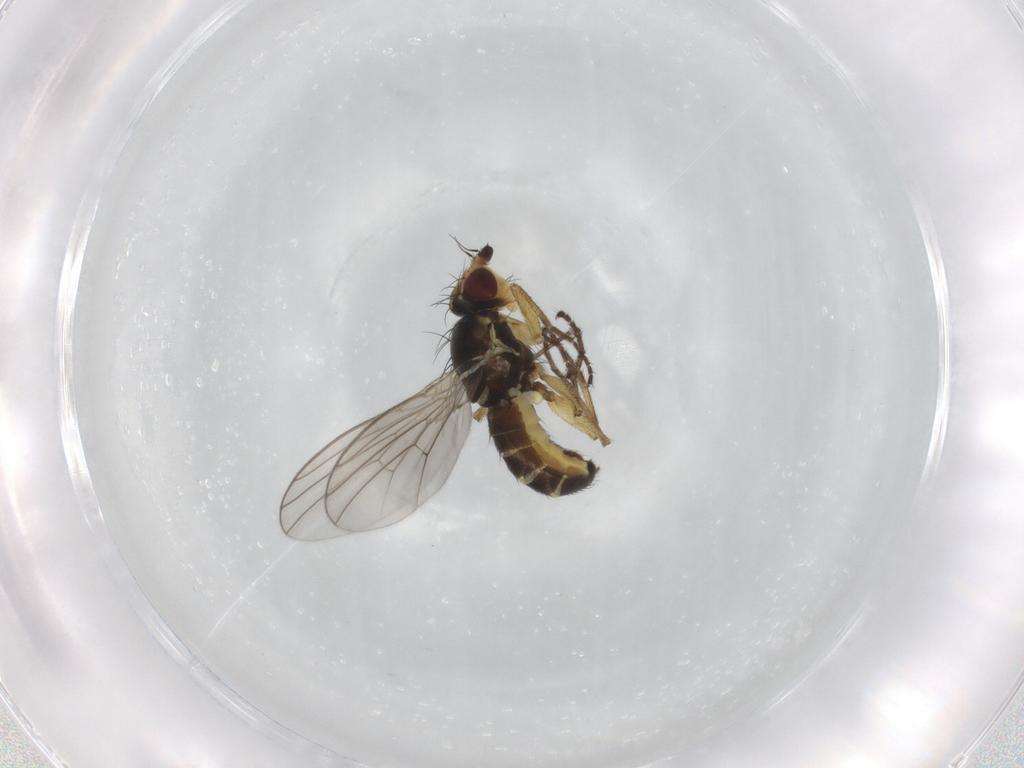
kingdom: Animalia
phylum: Arthropoda
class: Insecta
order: Diptera
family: Agromyzidae
